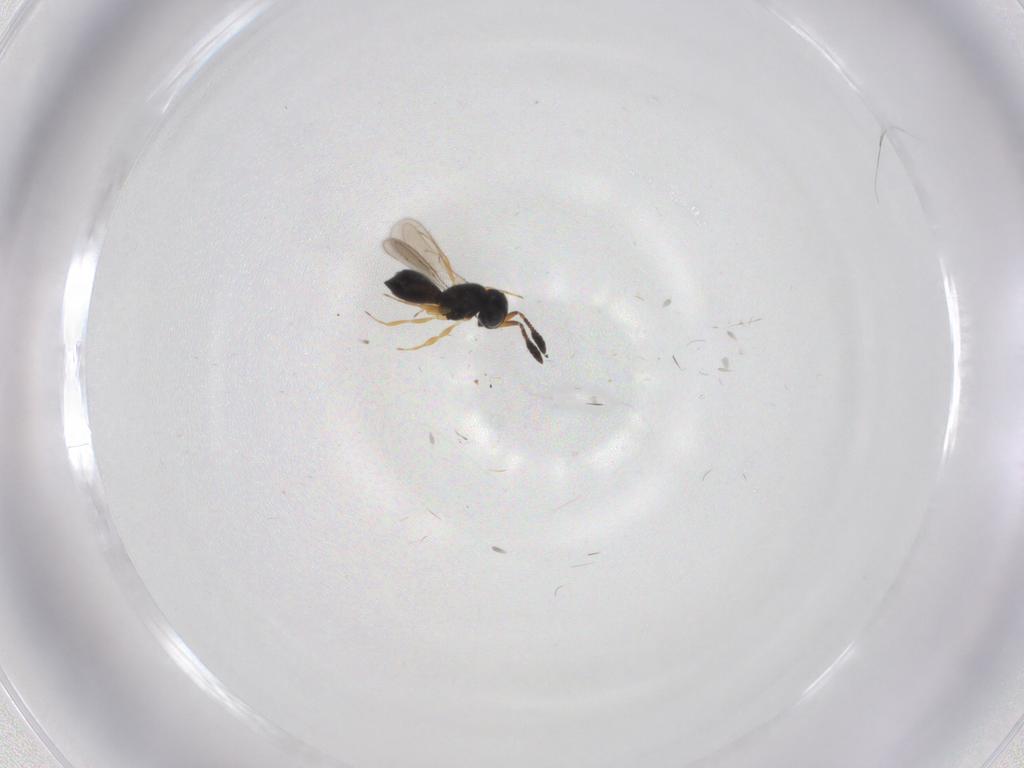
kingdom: Animalia
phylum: Arthropoda
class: Insecta
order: Hymenoptera
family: Scelionidae
